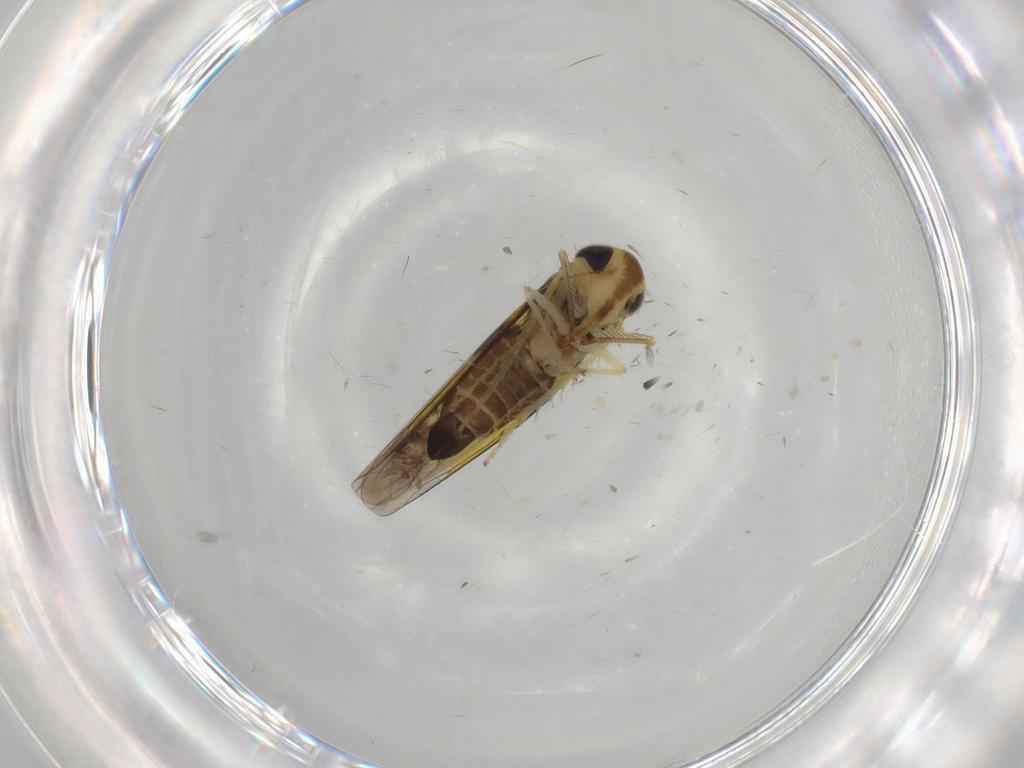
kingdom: Animalia
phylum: Arthropoda
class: Insecta
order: Hemiptera
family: Cicadellidae
